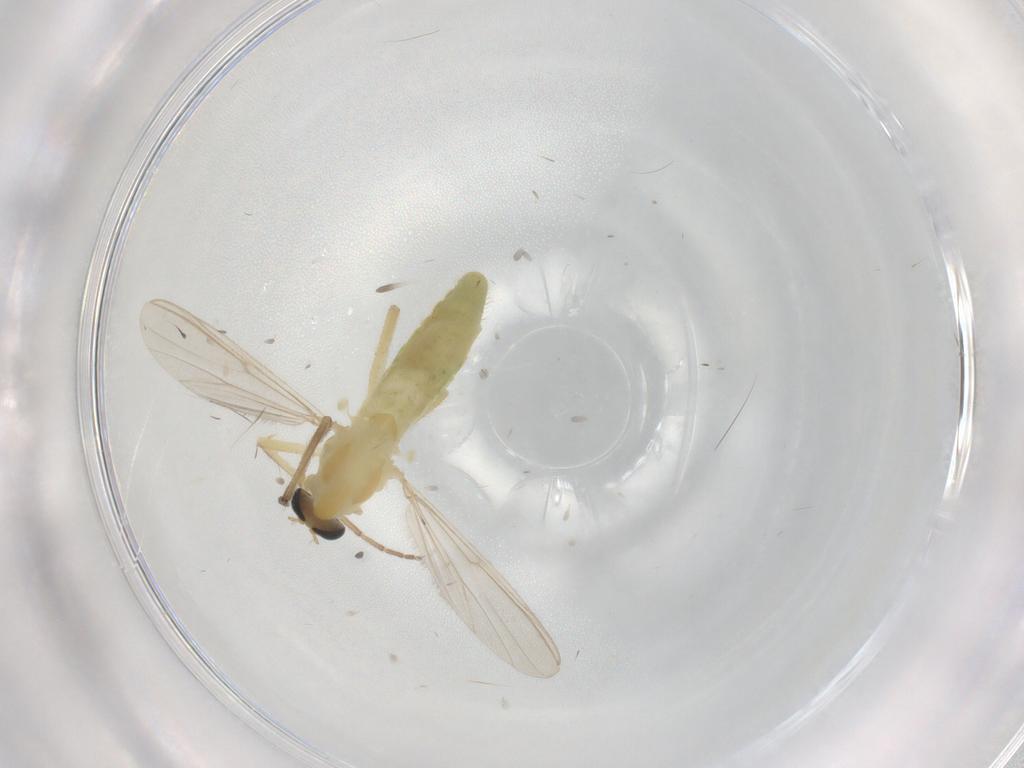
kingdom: Animalia
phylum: Arthropoda
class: Insecta
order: Diptera
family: Chironomidae
